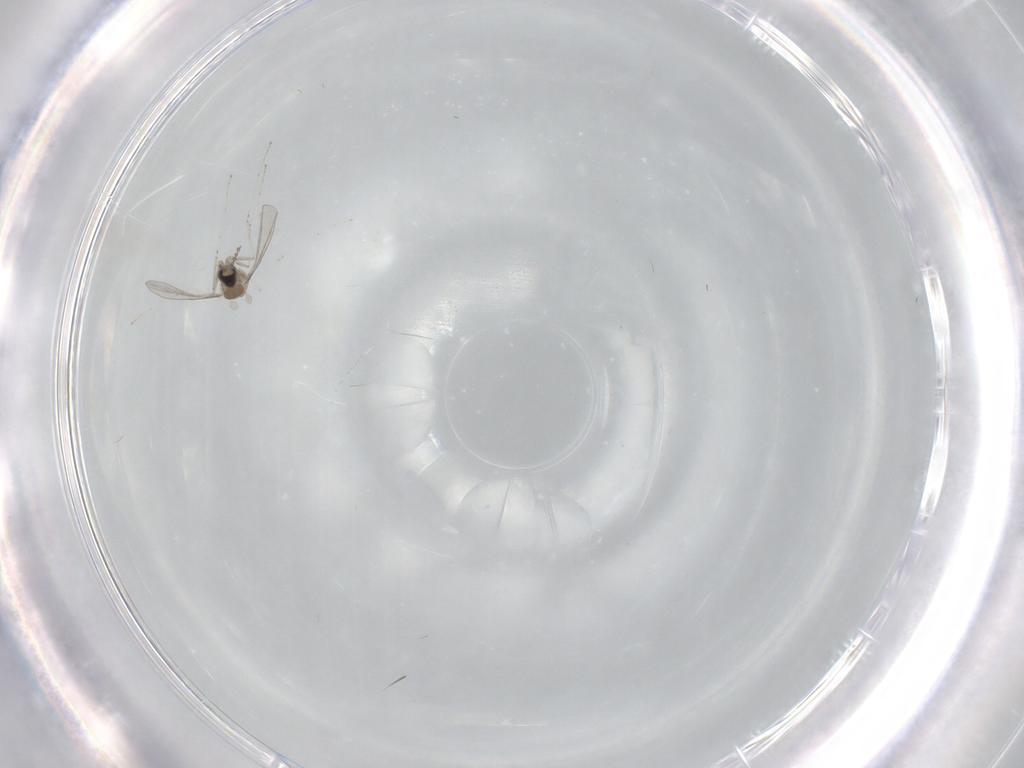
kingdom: Animalia
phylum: Arthropoda
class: Insecta
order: Diptera
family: Cecidomyiidae
